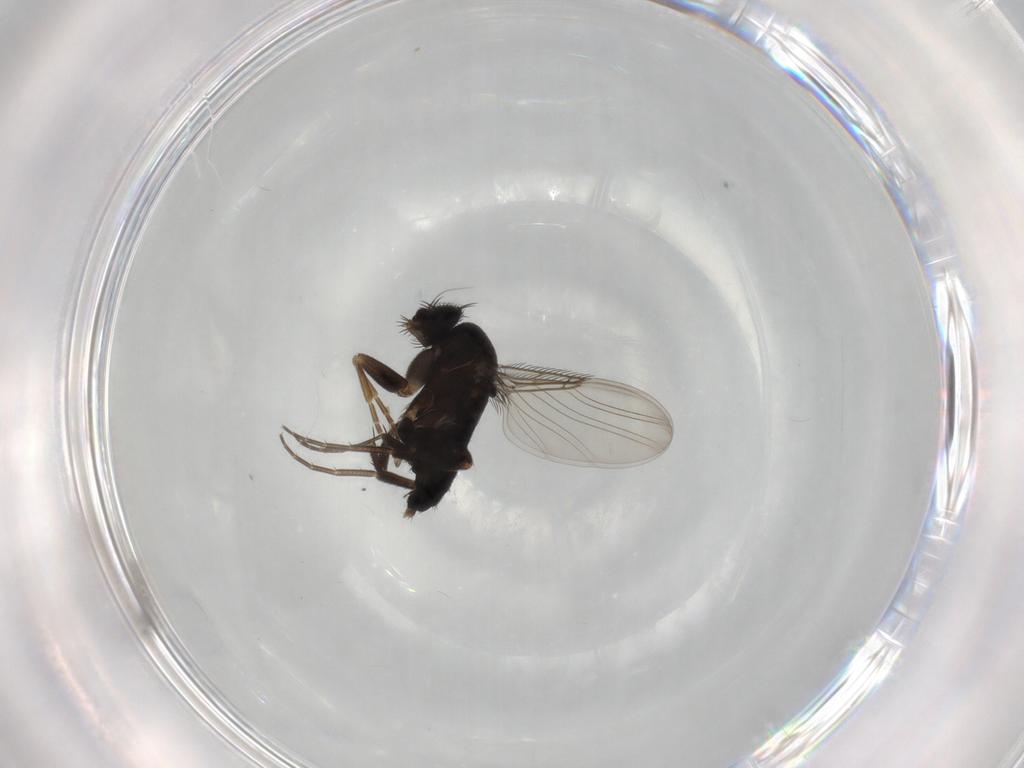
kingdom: Animalia
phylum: Arthropoda
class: Insecta
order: Diptera
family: Phoridae
